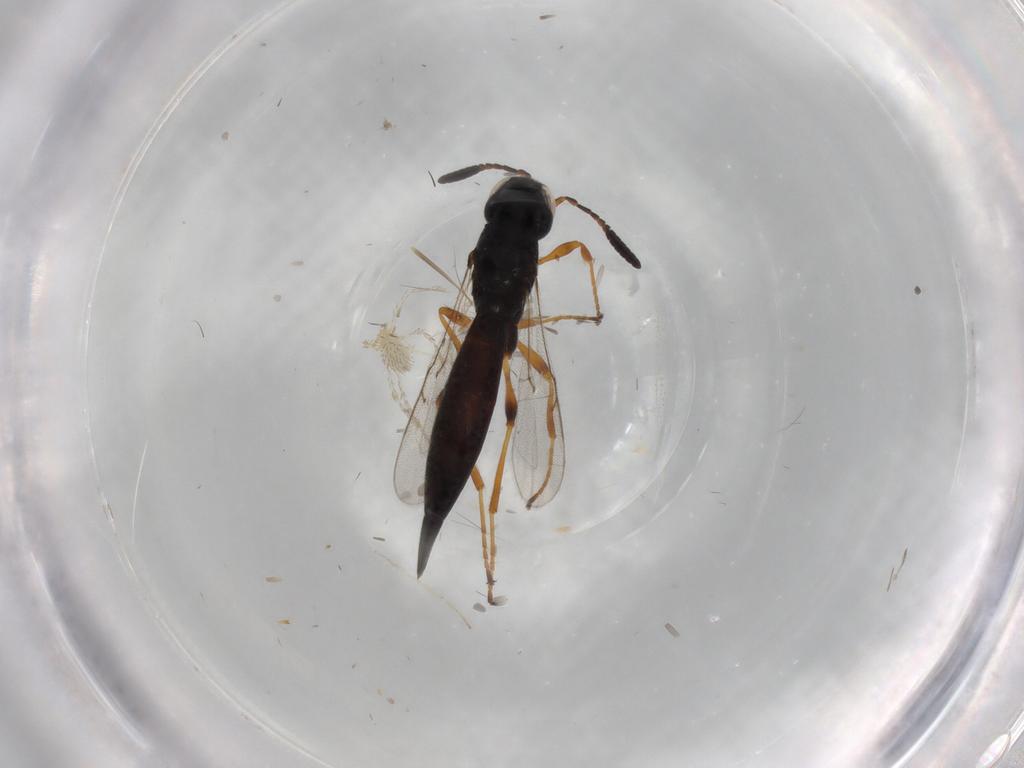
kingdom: Animalia
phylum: Arthropoda
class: Insecta
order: Hymenoptera
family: Scelionidae
